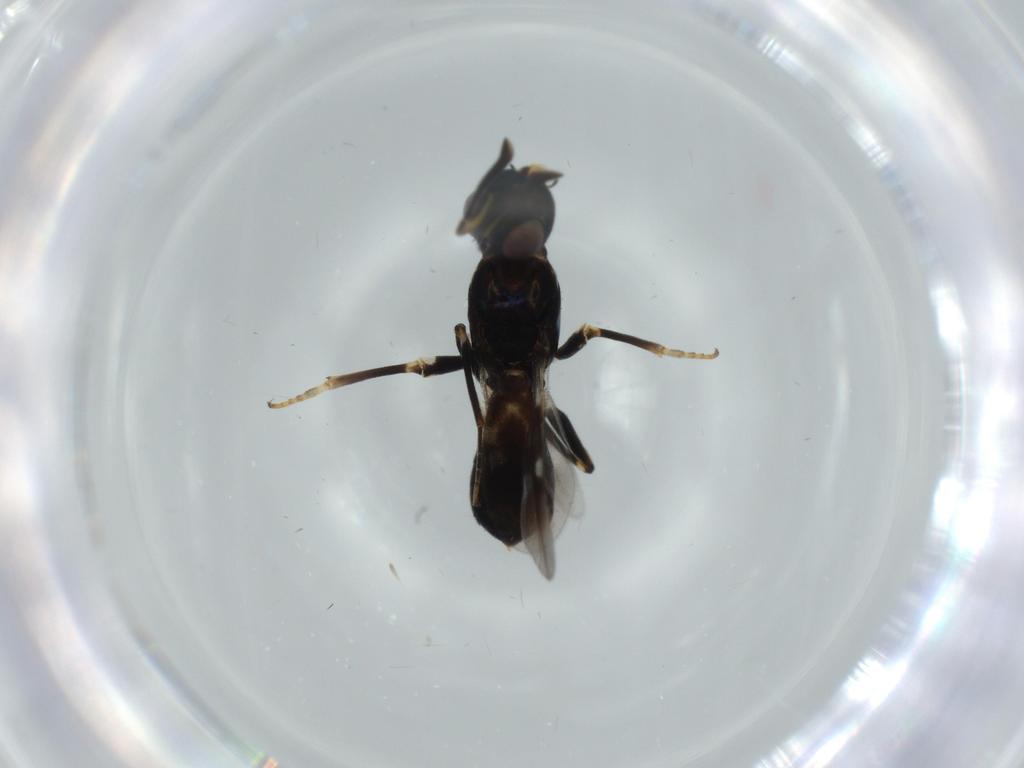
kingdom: Animalia
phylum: Arthropoda
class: Insecta
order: Hymenoptera
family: Eupelmidae
